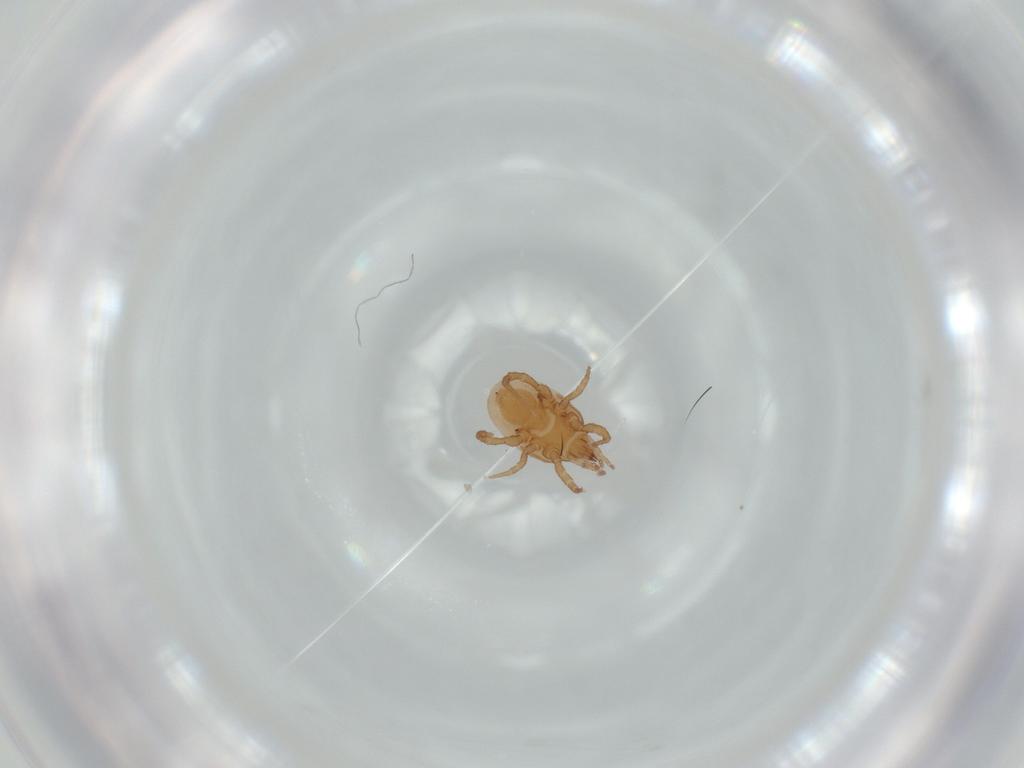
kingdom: Animalia
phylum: Arthropoda
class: Arachnida
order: Mesostigmata
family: Macrochelidae
